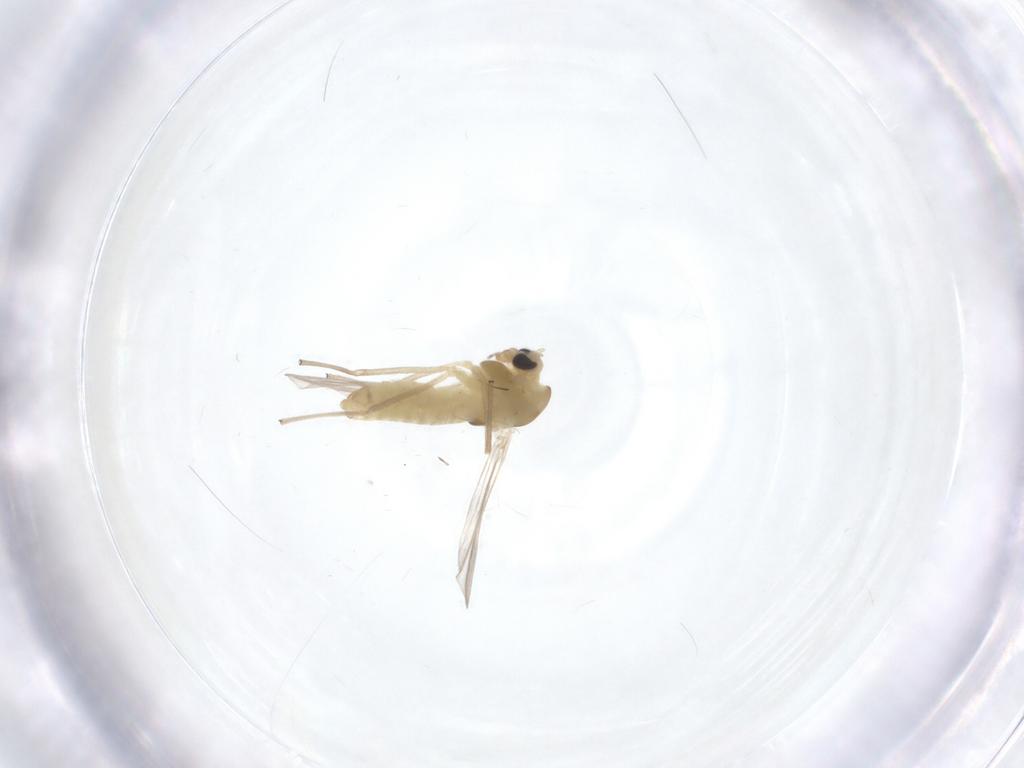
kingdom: Animalia
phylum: Arthropoda
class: Insecta
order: Diptera
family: Chironomidae
